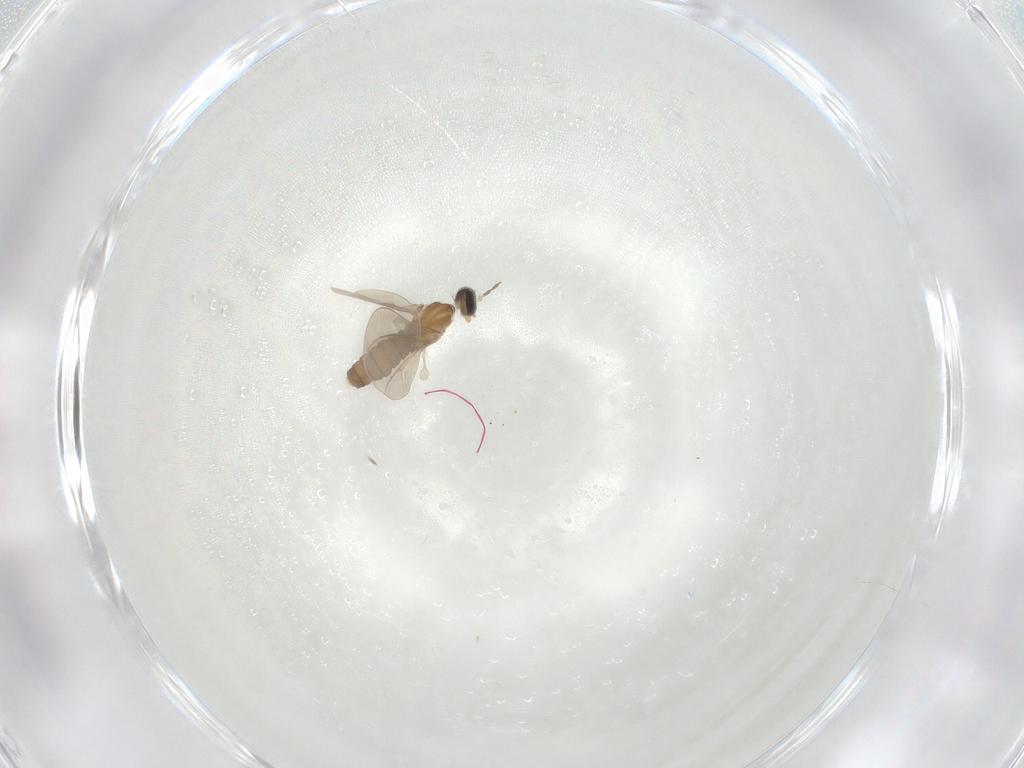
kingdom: Animalia
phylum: Arthropoda
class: Insecta
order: Diptera
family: Cecidomyiidae
